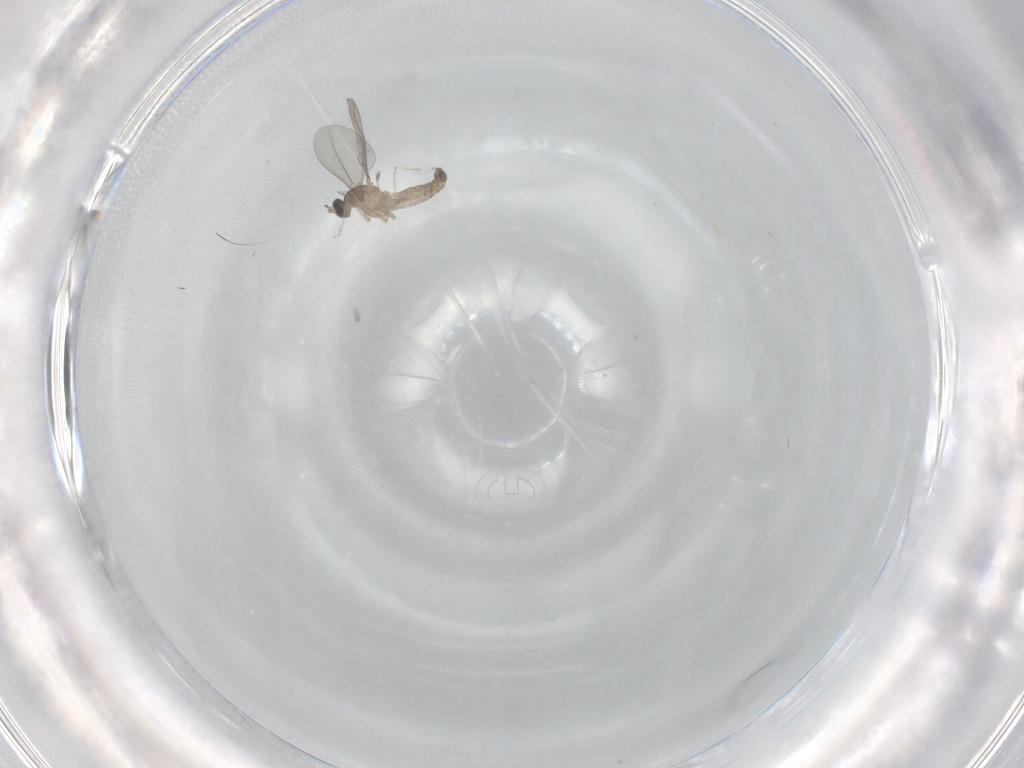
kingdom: Animalia
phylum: Arthropoda
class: Insecta
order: Diptera
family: Cecidomyiidae
